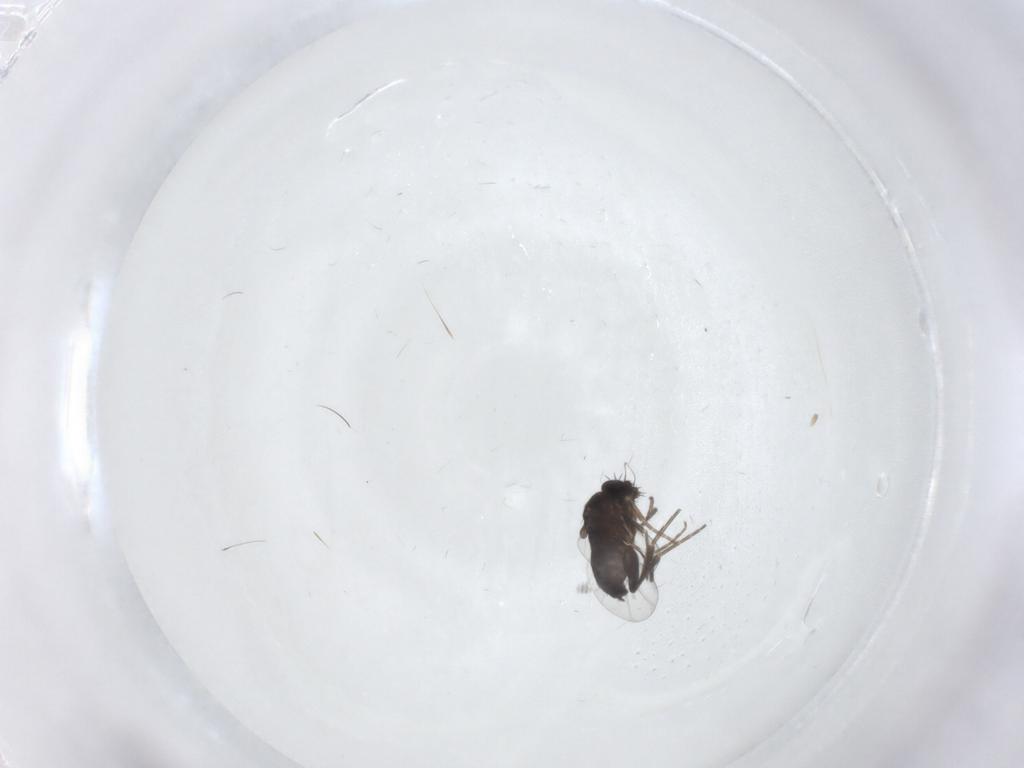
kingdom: Animalia
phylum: Arthropoda
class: Insecta
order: Diptera
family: Phoridae
